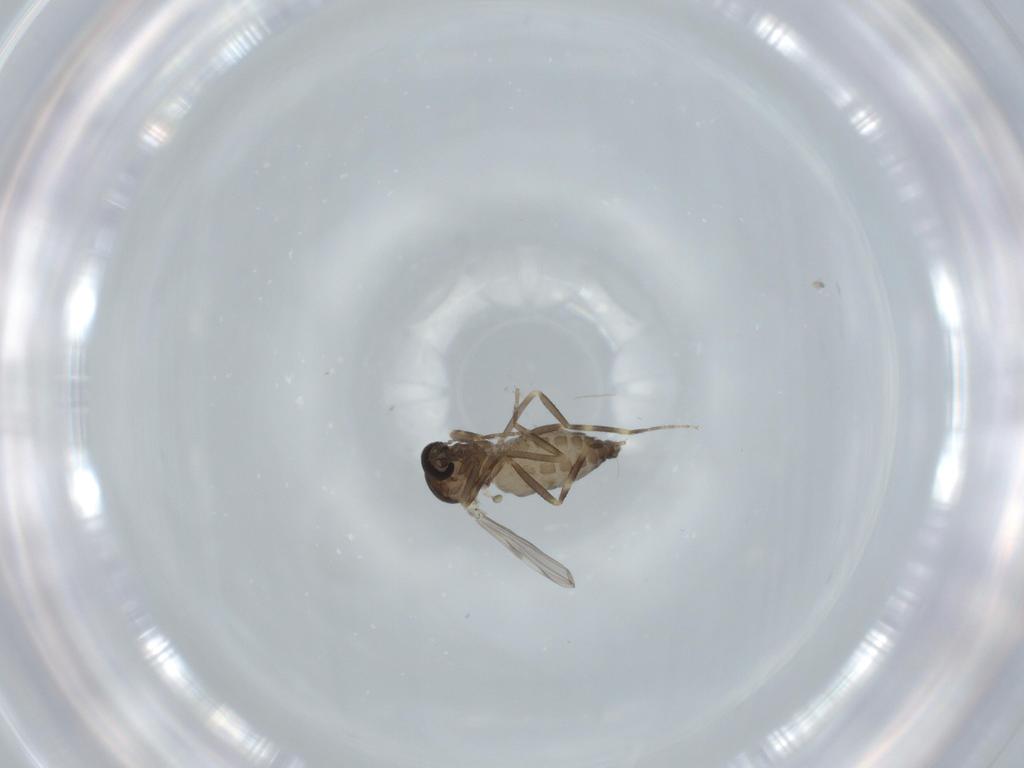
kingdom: Animalia
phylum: Arthropoda
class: Insecta
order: Diptera
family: Ceratopogonidae
